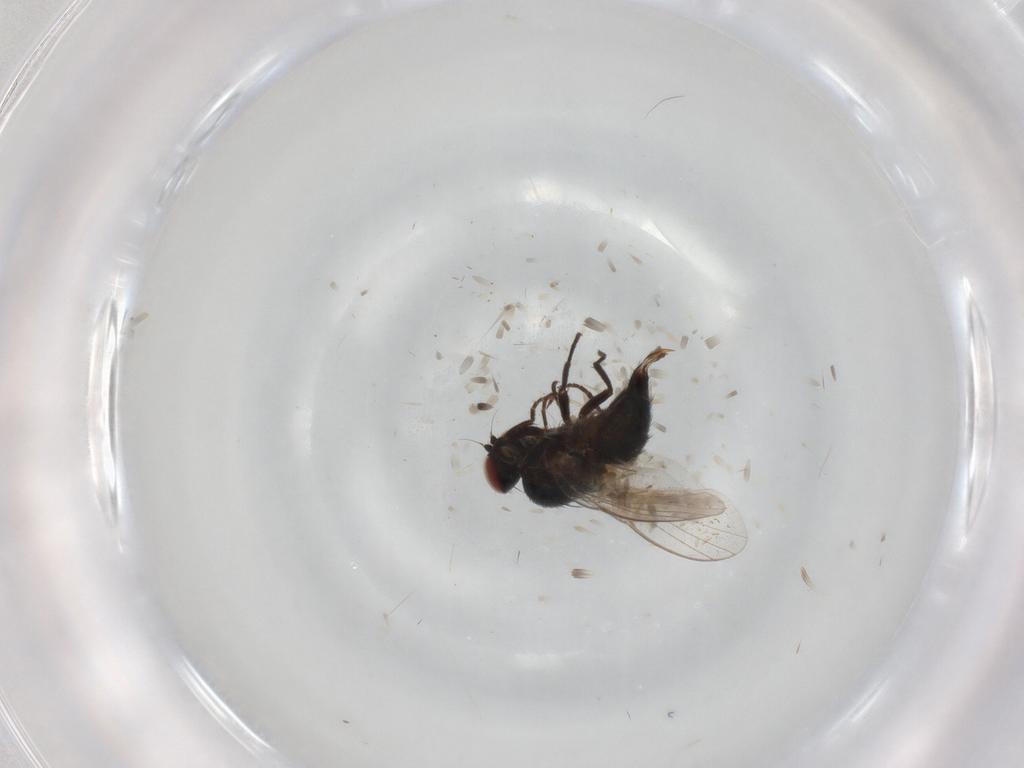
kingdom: Animalia
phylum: Arthropoda
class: Insecta
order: Diptera
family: Agromyzidae
